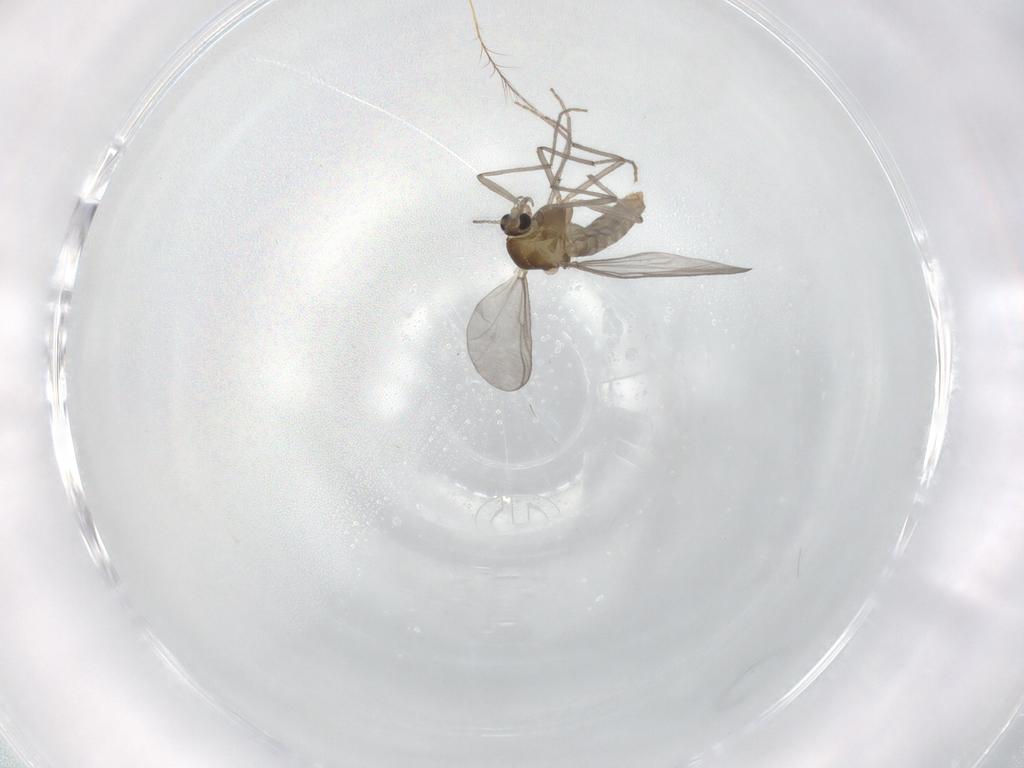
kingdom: Animalia
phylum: Arthropoda
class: Insecta
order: Diptera
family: Chironomidae
